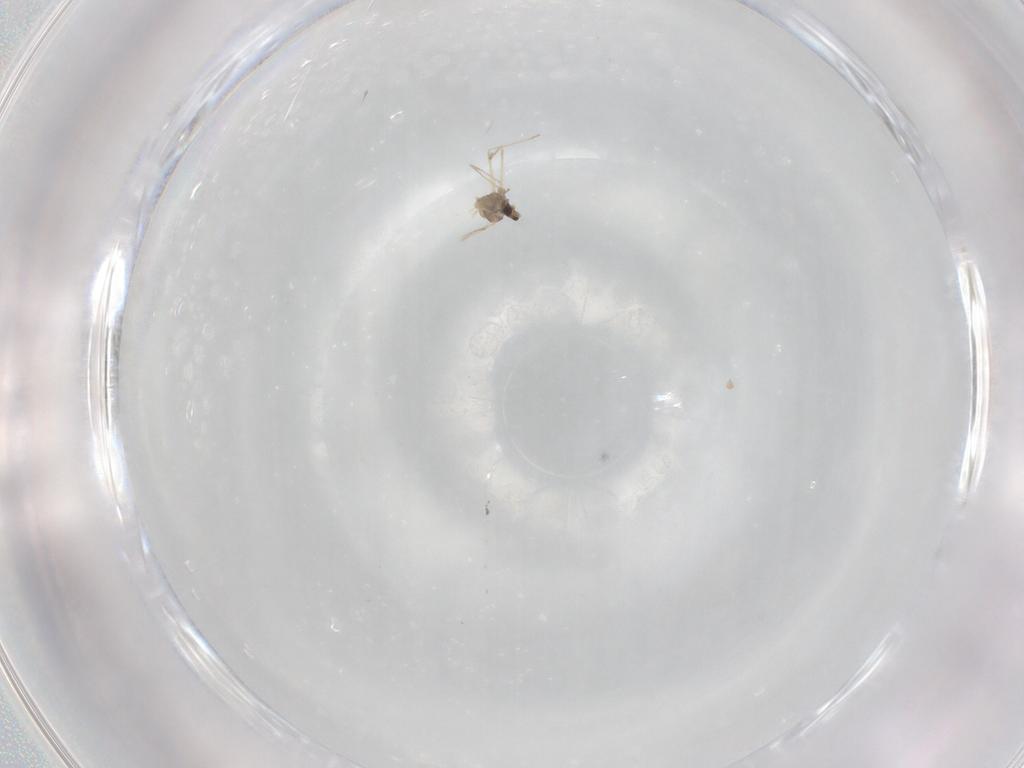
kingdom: Animalia
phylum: Arthropoda
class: Insecta
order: Diptera
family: Cecidomyiidae
